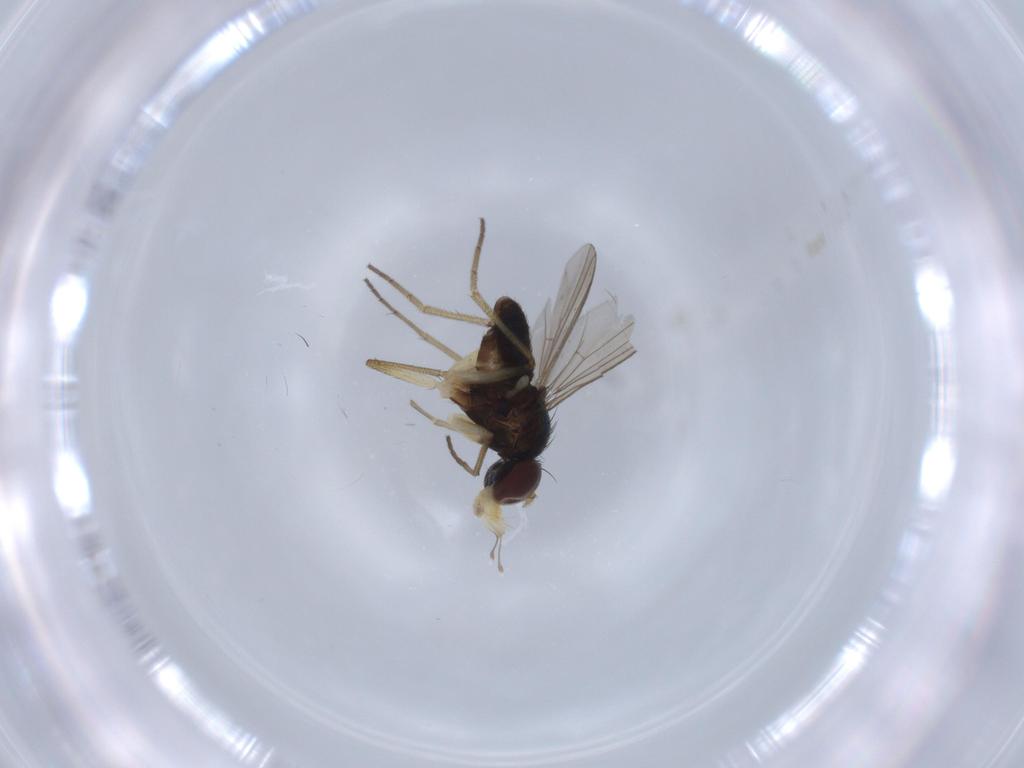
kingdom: Animalia
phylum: Arthropoda
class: Insecta
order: Diptera
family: Dolichopodidae
